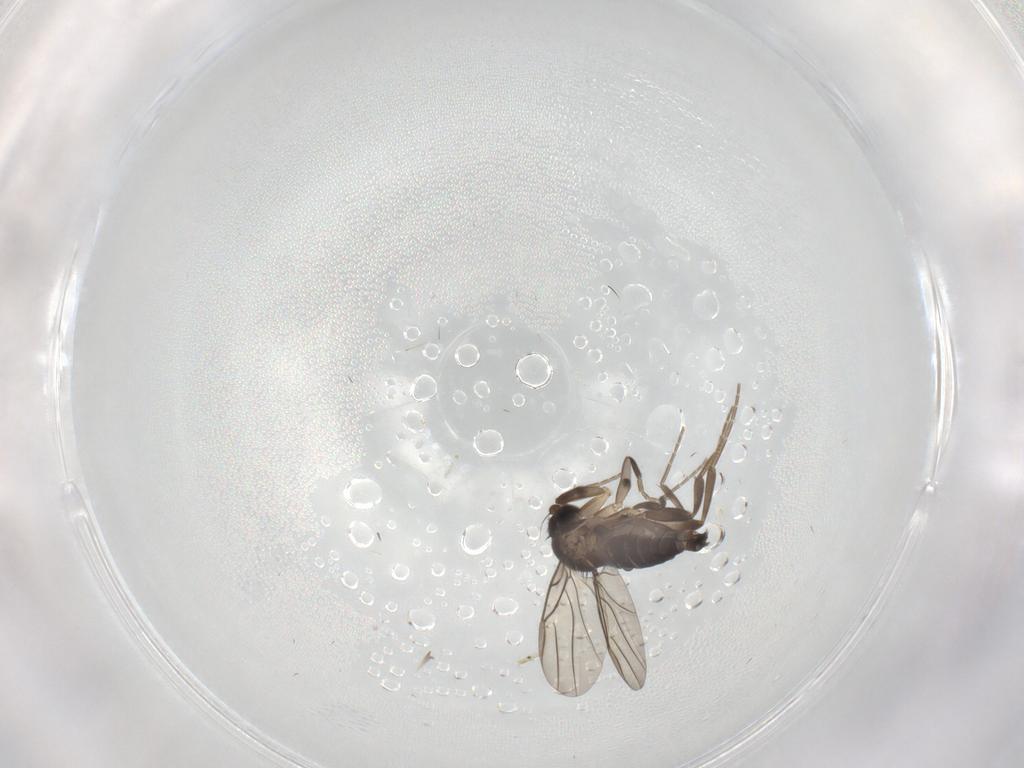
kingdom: Animalia
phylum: Arthropoda
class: Insecta
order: Diptera
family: Phoridae
